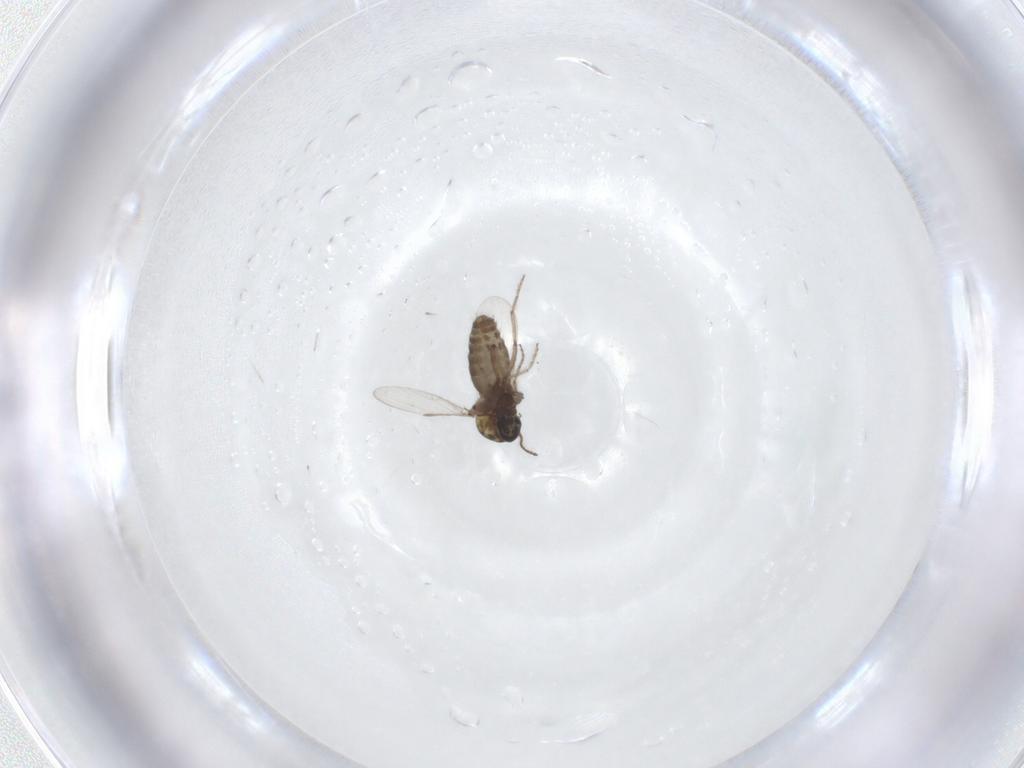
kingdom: Animalia
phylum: Arthropoda
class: Insecta
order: Diptera
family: Ceratopogonidae
